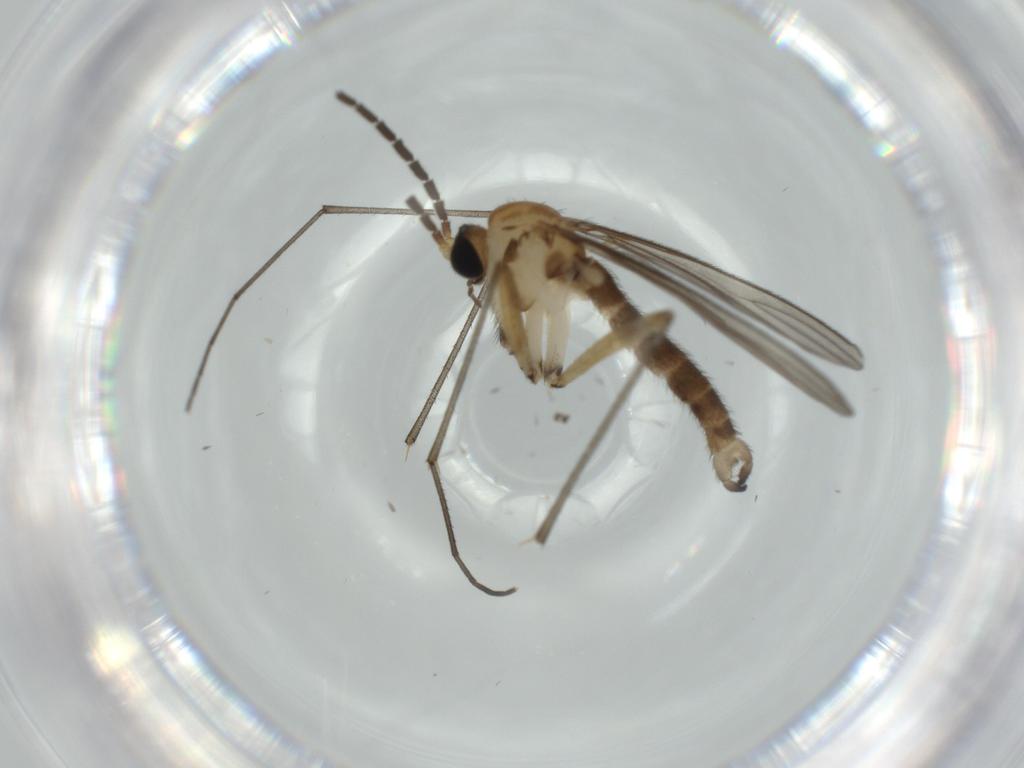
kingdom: Animalia
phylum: Arthropoda
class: Insecta
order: Diptera
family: Sciaridae
